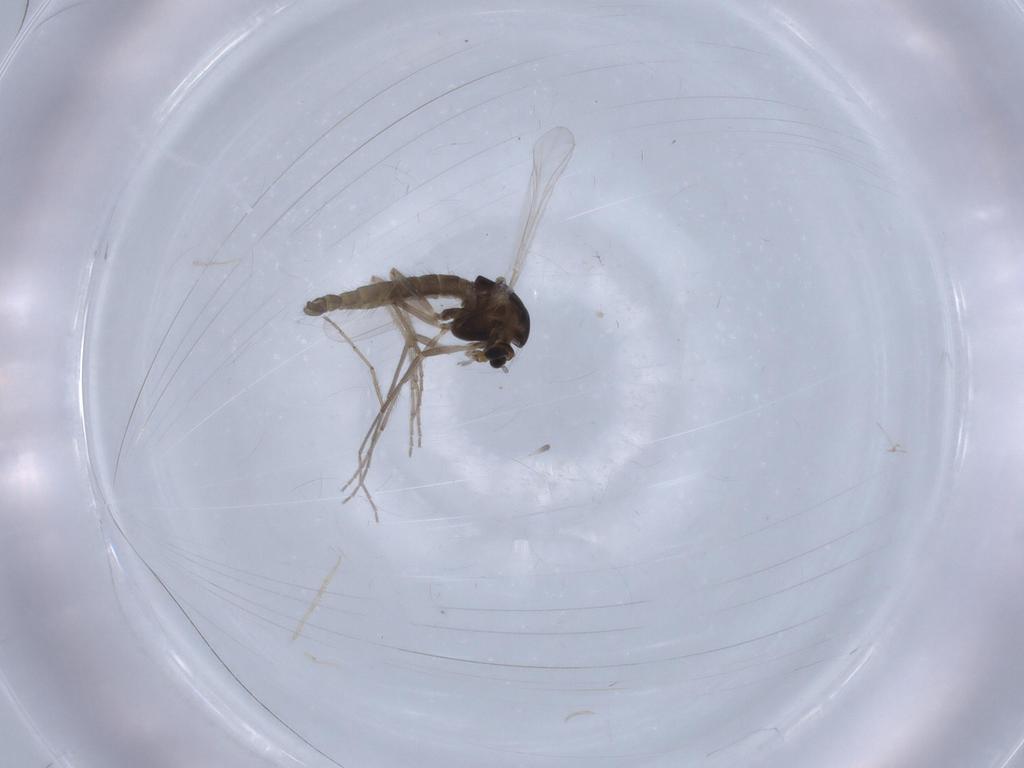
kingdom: Animalia
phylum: Arthropoda
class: Insecta
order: Diptera
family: Chironomidae
